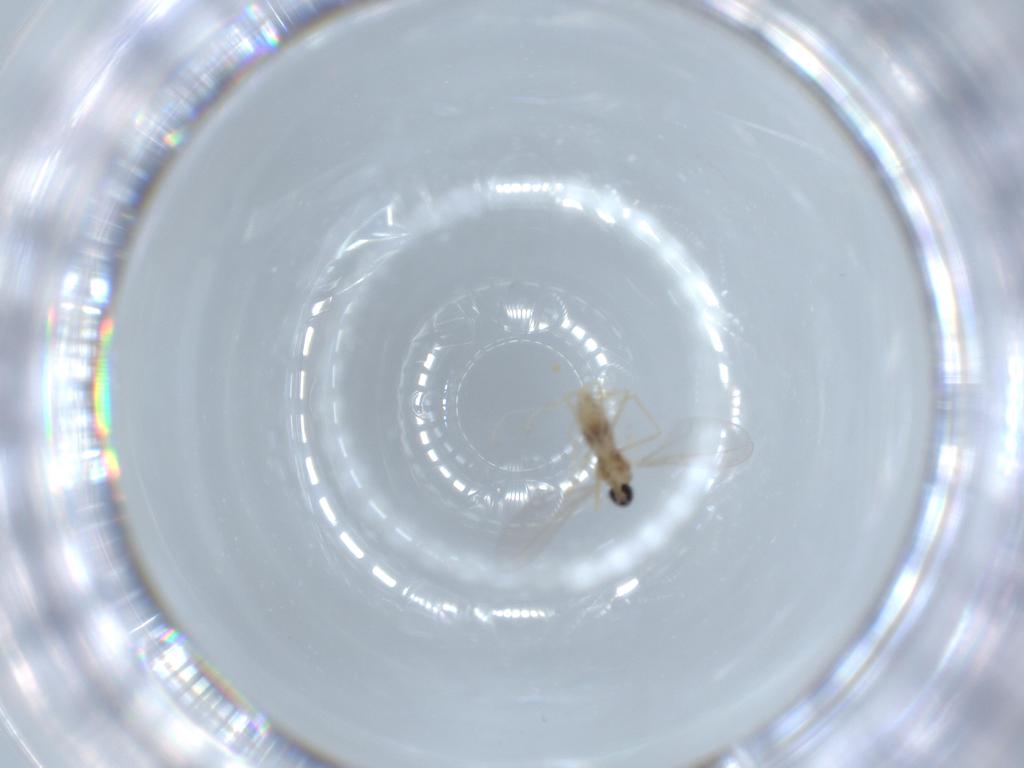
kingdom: Animalia
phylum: Arthropoda
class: Insecta
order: Diptera
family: Cecidomyiidae
